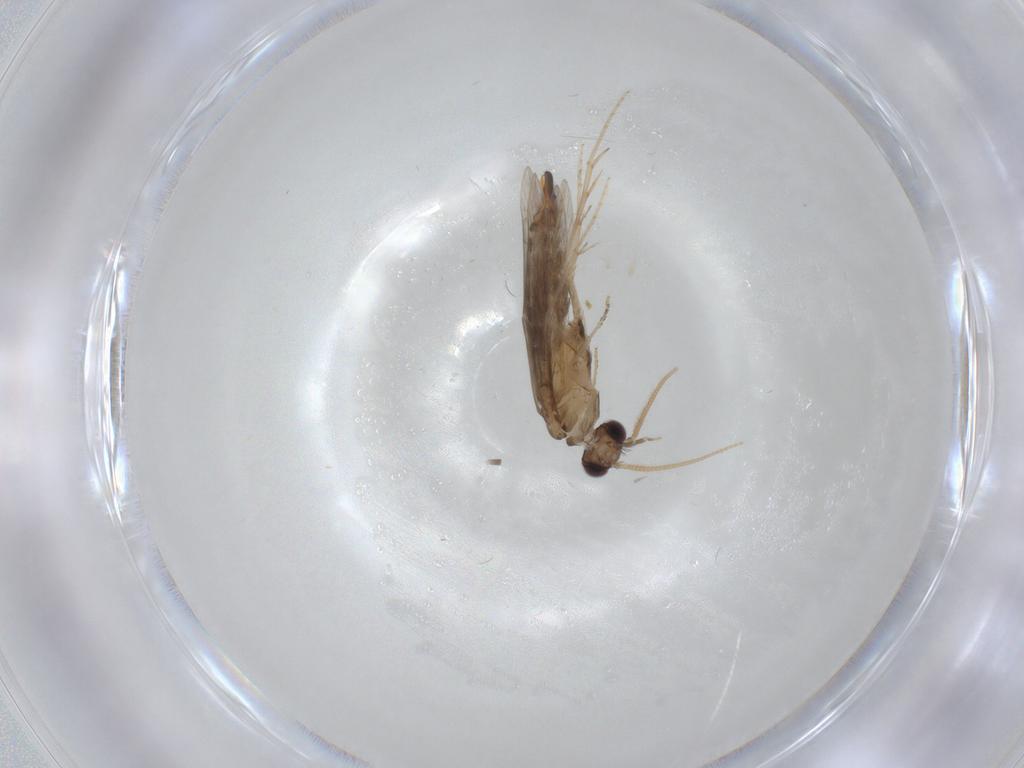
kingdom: Animalia
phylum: Arthropoda
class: Insecta
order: Trichoptera
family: Hydroptilidae
